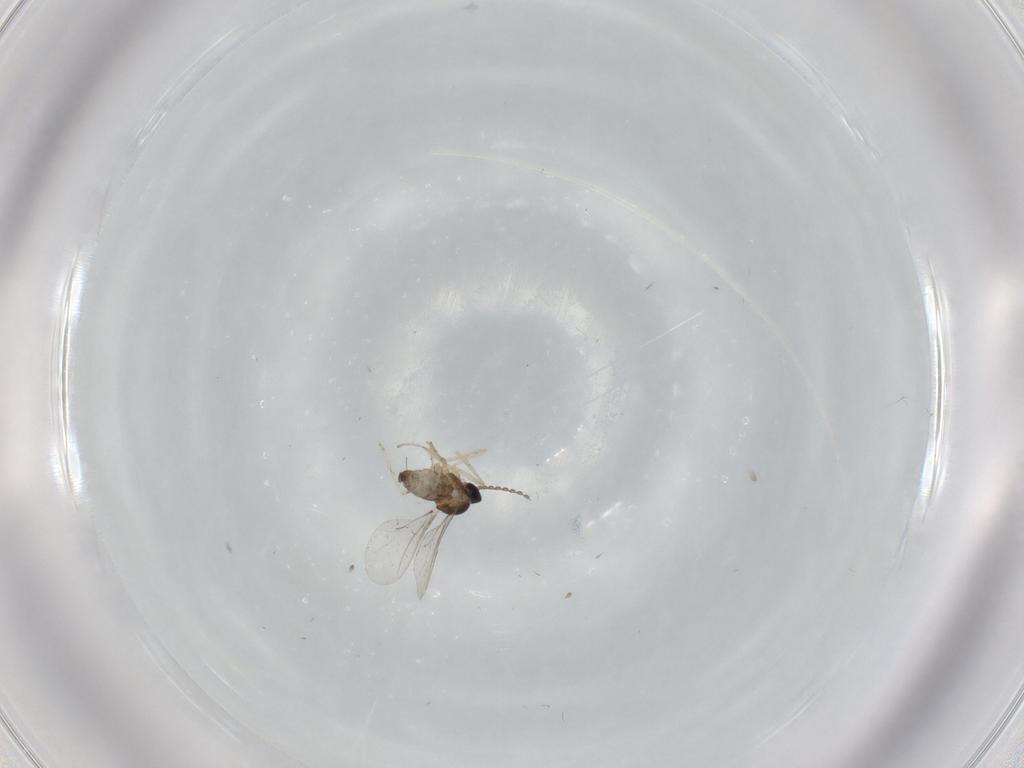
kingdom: Animalia
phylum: Arthropoda
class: Insecta
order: Diptera
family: Cecidomyiidae
